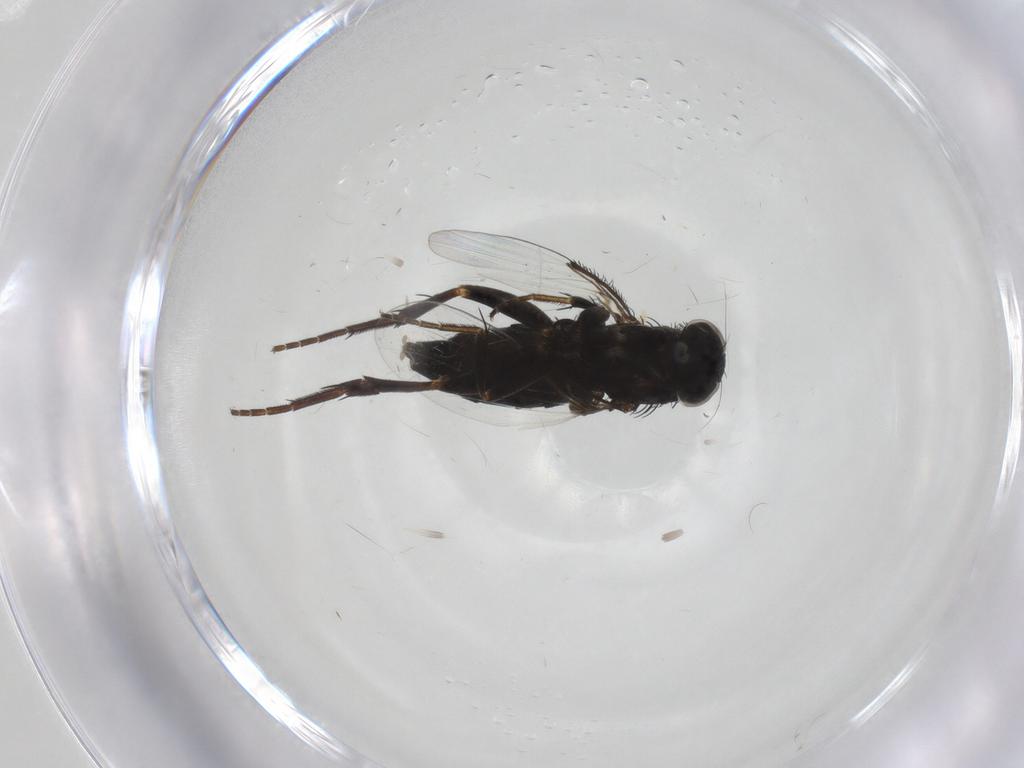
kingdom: Animalia
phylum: Arthropoda
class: Insecta
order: Diptera
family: Phoridae
